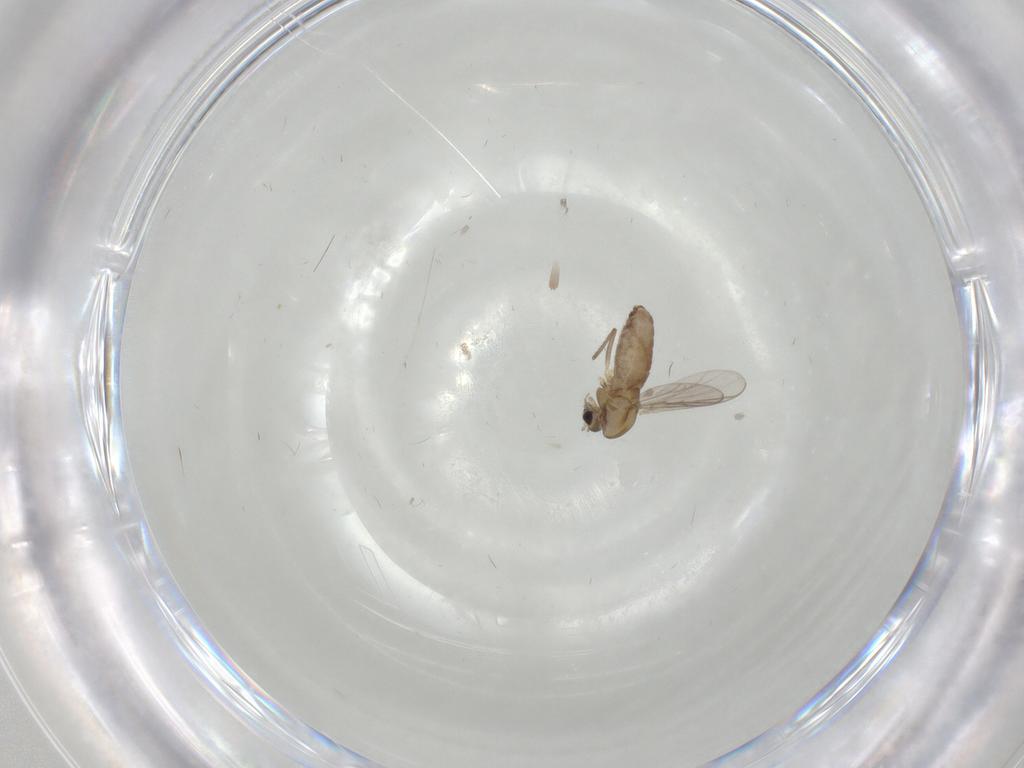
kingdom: Animalia
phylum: Arthropoda
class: Insecta
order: Diptera
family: Chironomidae
